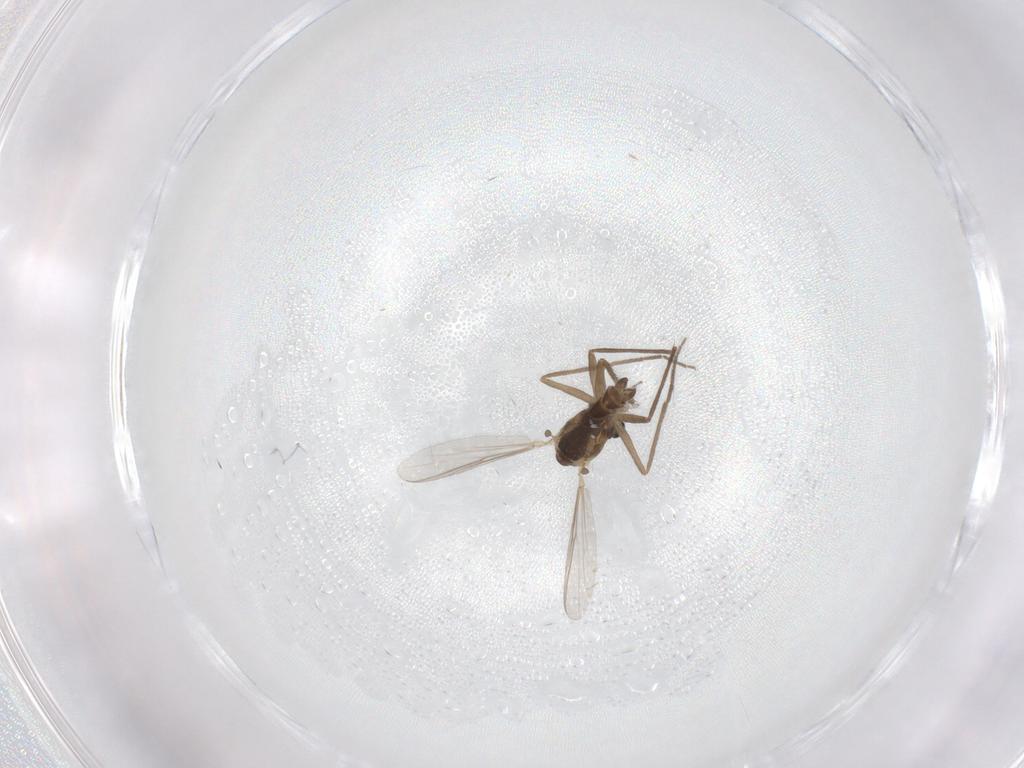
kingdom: Animalia
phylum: Arthropoda
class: Insecta
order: Diptera
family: Chironomidae
